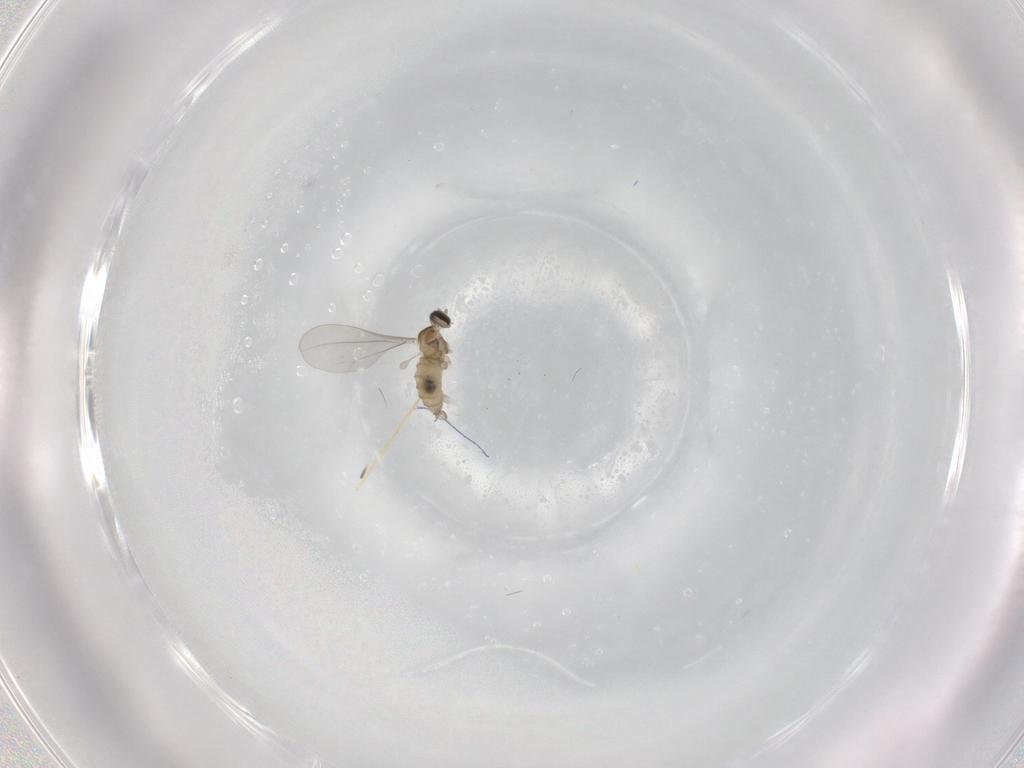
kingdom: Animalia
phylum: Arthropoda
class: Insecta
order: Diptera
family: Cecidomyiidae
